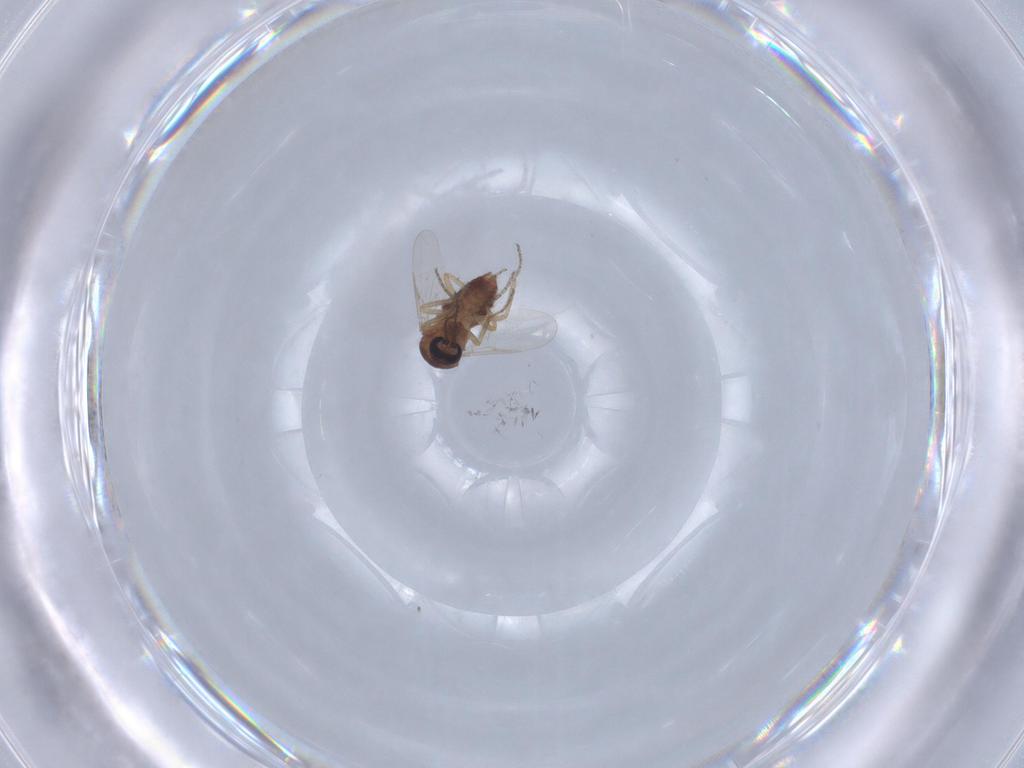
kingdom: Animalia
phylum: Arthropoda
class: Insecta
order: Diptera
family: Ceratopogonidae
